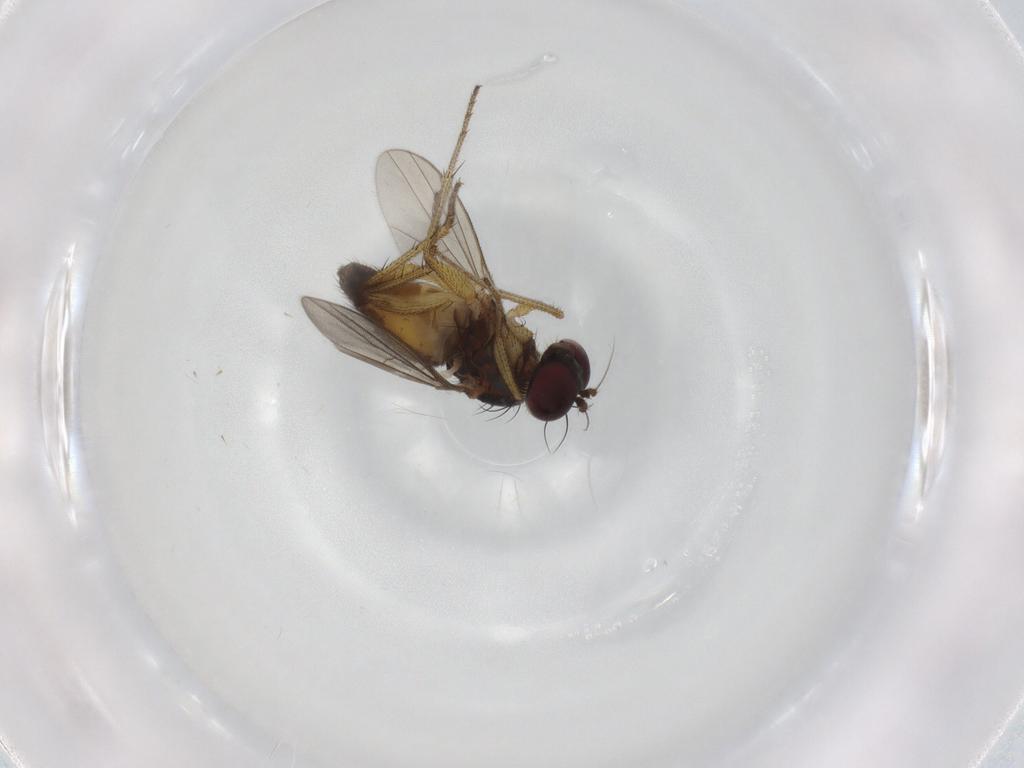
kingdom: Animalia
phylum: Arthropoda
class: Insecta
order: Diptera
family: Dolichopodidae
